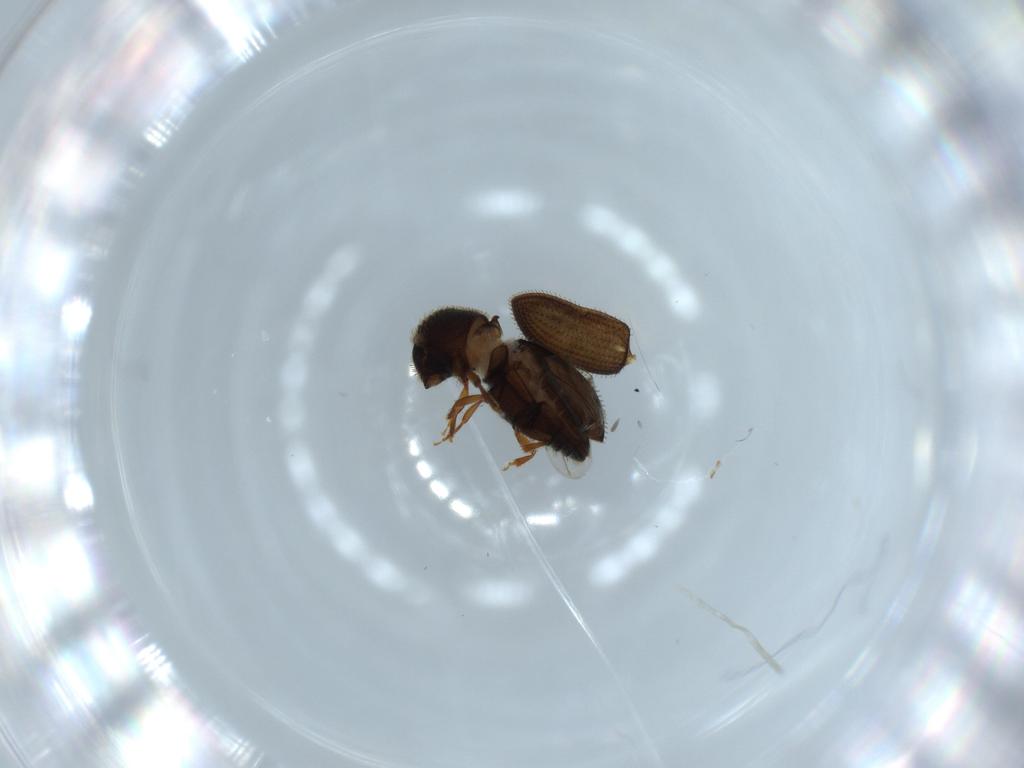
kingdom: Animalia
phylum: Arthropoda
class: Insecta
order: Coleoptera
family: Curculionidae
